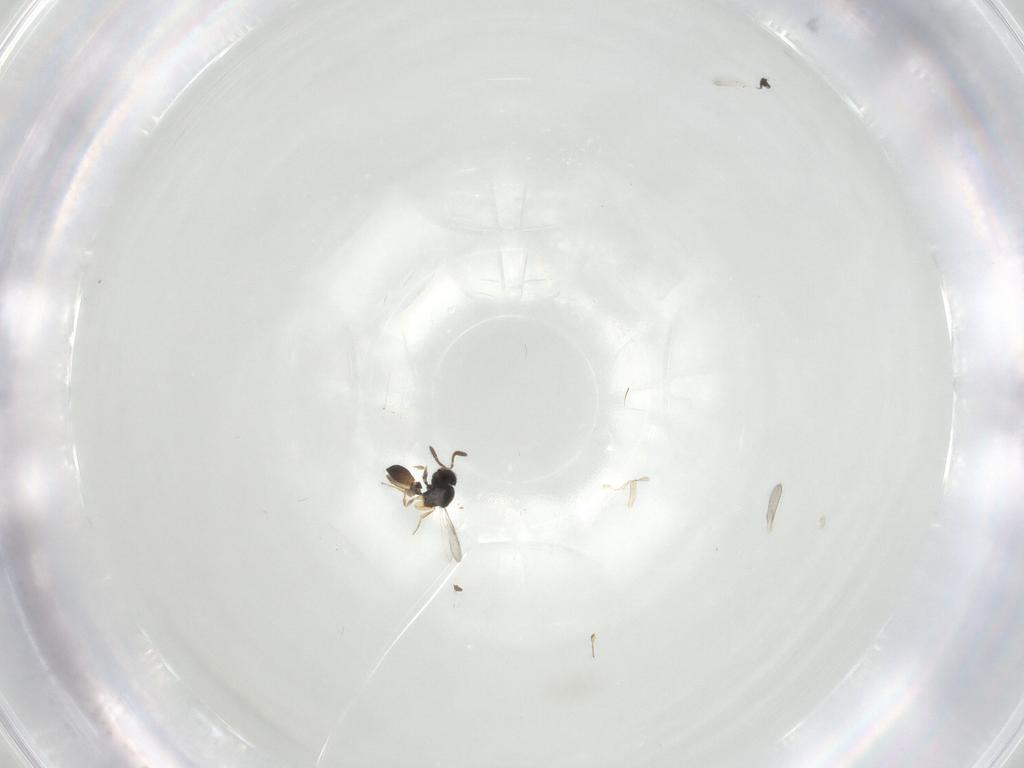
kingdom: Animalia
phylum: Arthropoda
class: Insecta
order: Hymenoptera
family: Scelionidae
